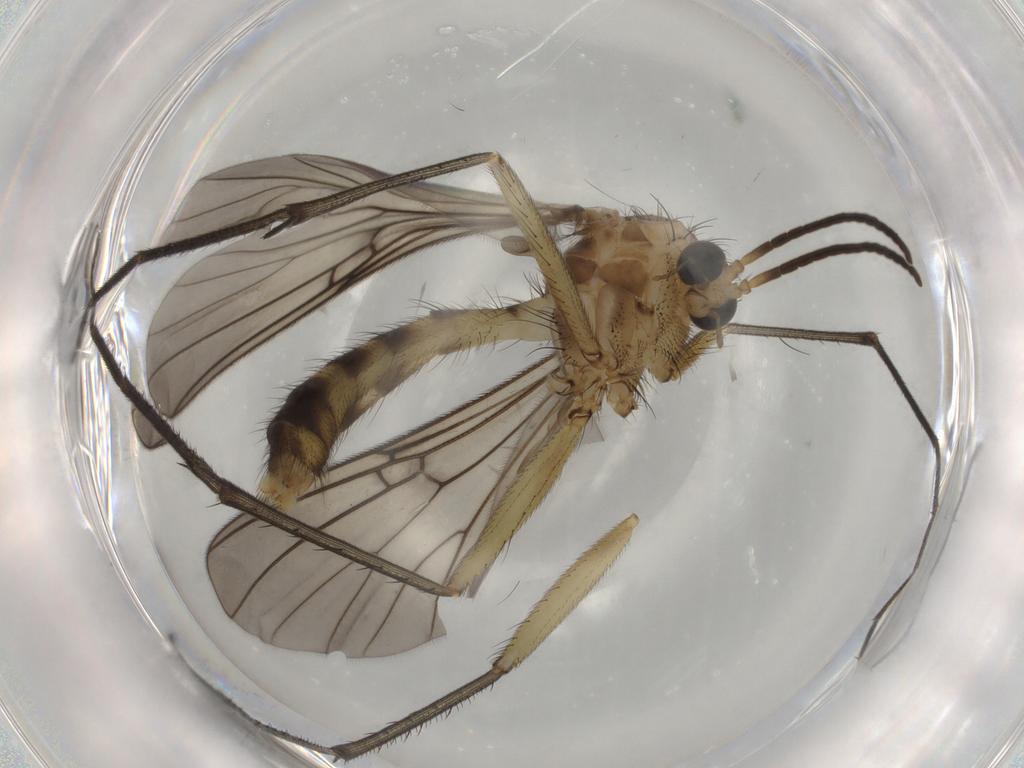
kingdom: Animalia
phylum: Arthropoda
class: Insecta
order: Diptera
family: Mycetophilidae
